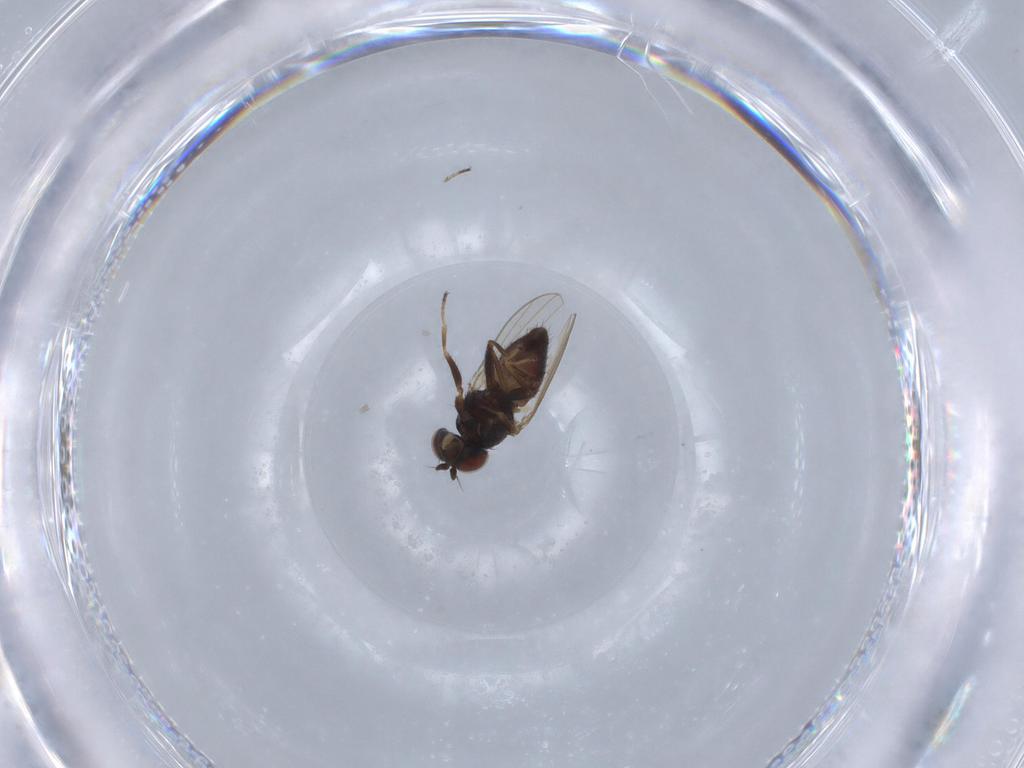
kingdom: Animalia
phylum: Arthropoda
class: Insecta
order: Diptera
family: Ephydridae
